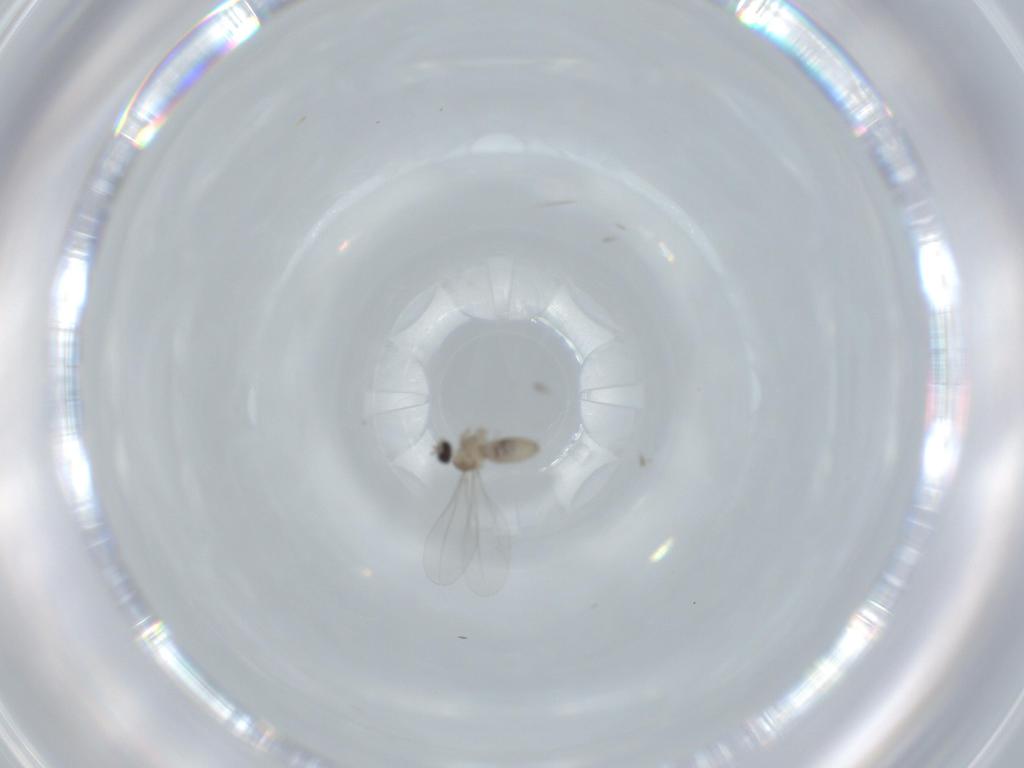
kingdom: Animalia
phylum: Arthropoda
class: Insecta
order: Diptera
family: Cecidomyiidae
